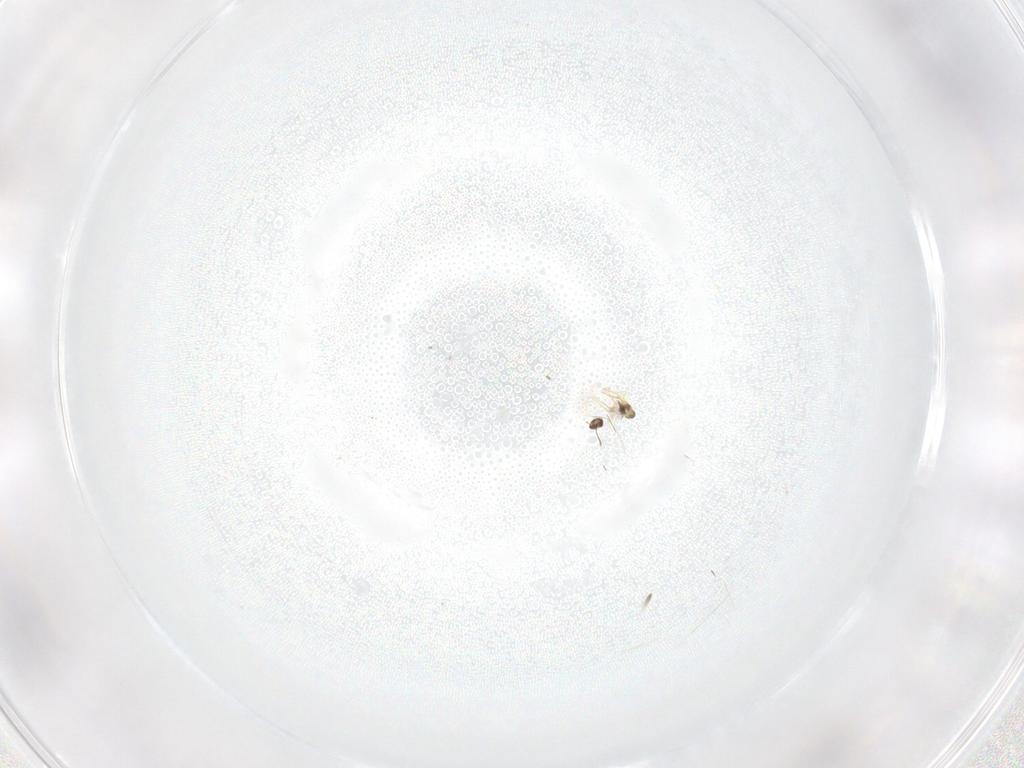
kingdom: Animalia
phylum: Arthropoda
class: Insecta
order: Diptera
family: Cecidomyiidae
